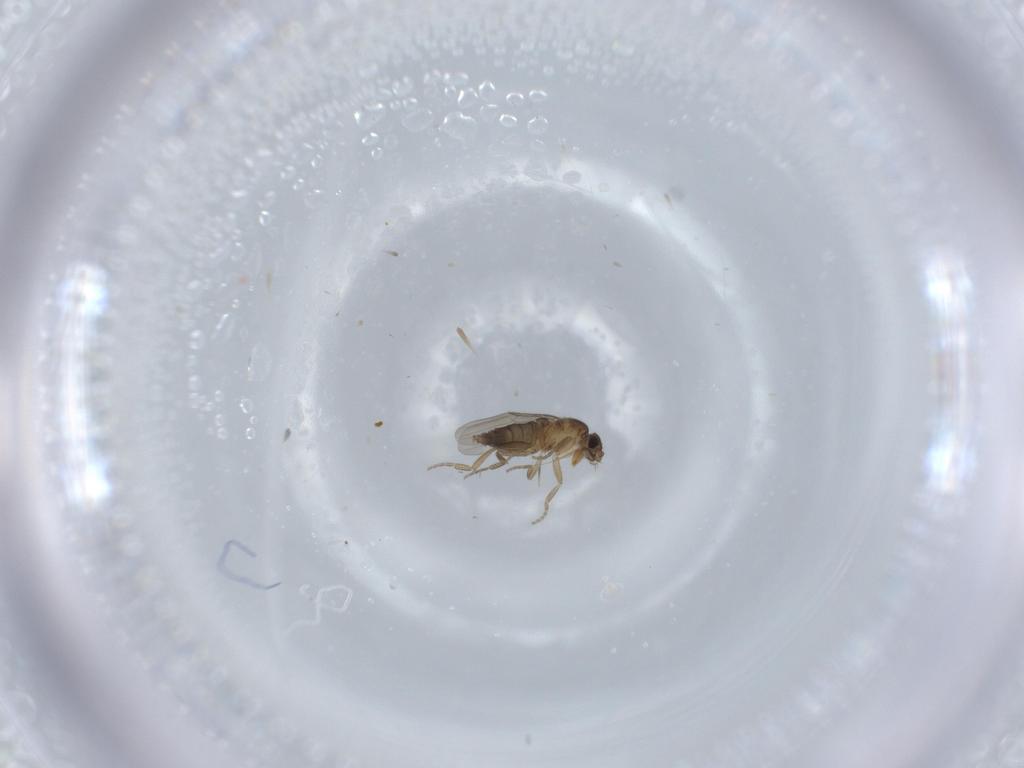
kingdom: Animalia
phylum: Arthropoda
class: Insecta
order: Diptera
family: Phoridae
